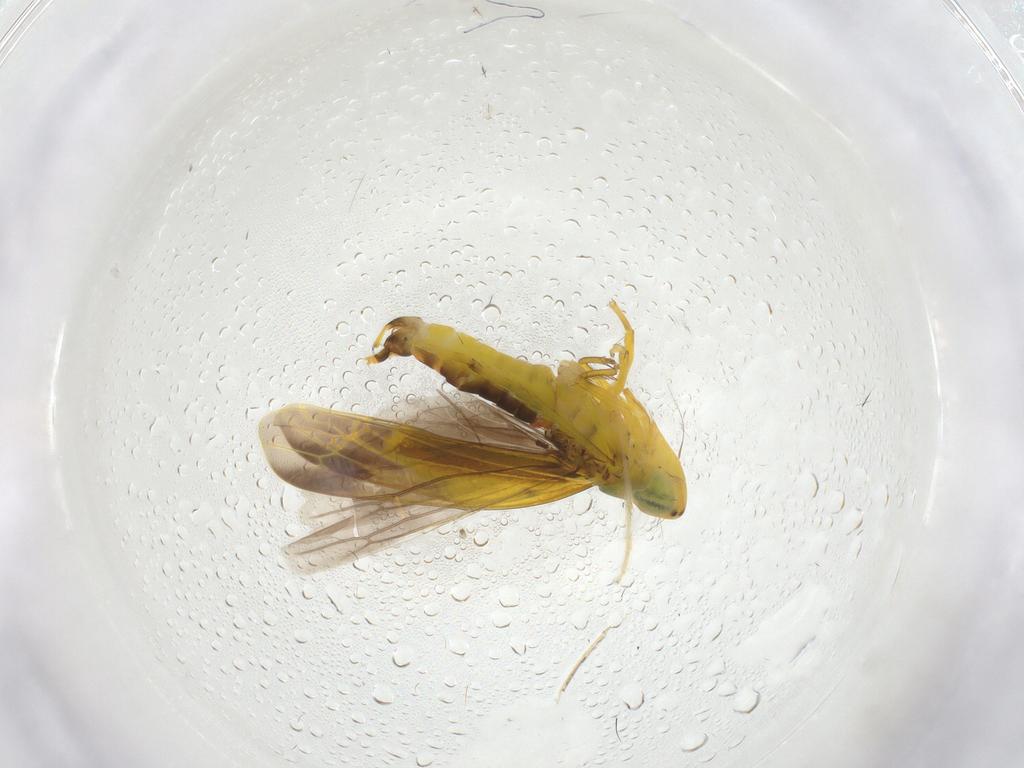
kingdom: Animalia
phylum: Arthropoda
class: Insecta
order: Hemiptera
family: Cicadellidae
